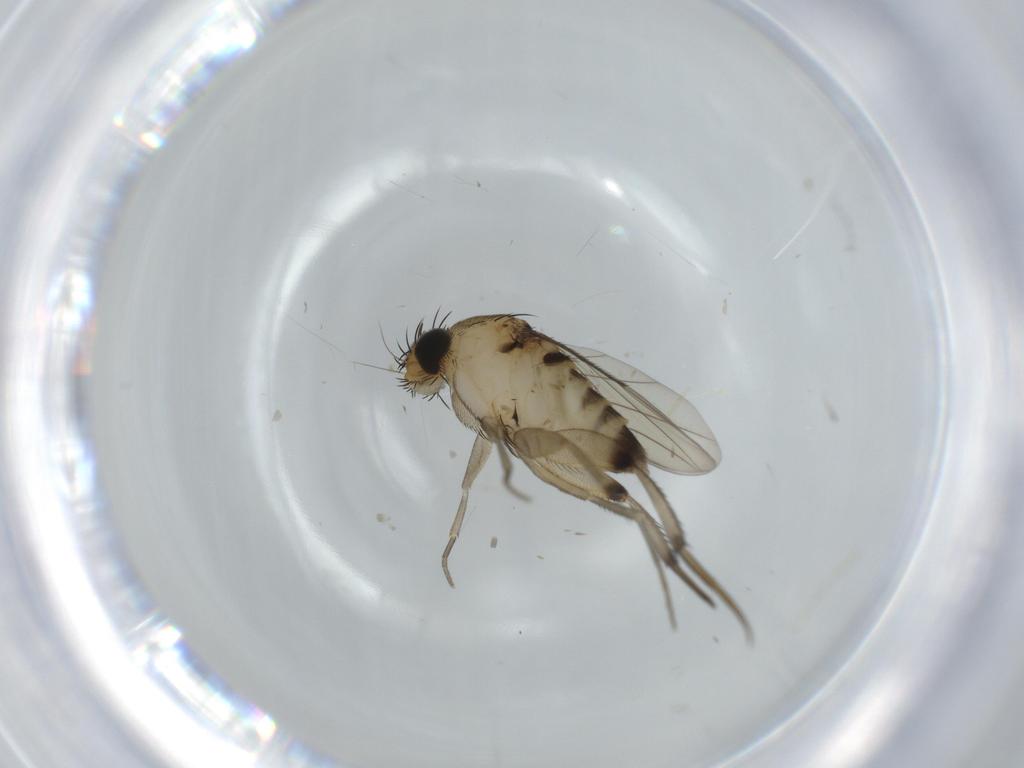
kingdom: Animalia
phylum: Arthropoda
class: Insecta
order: Diptera
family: Phoridae
